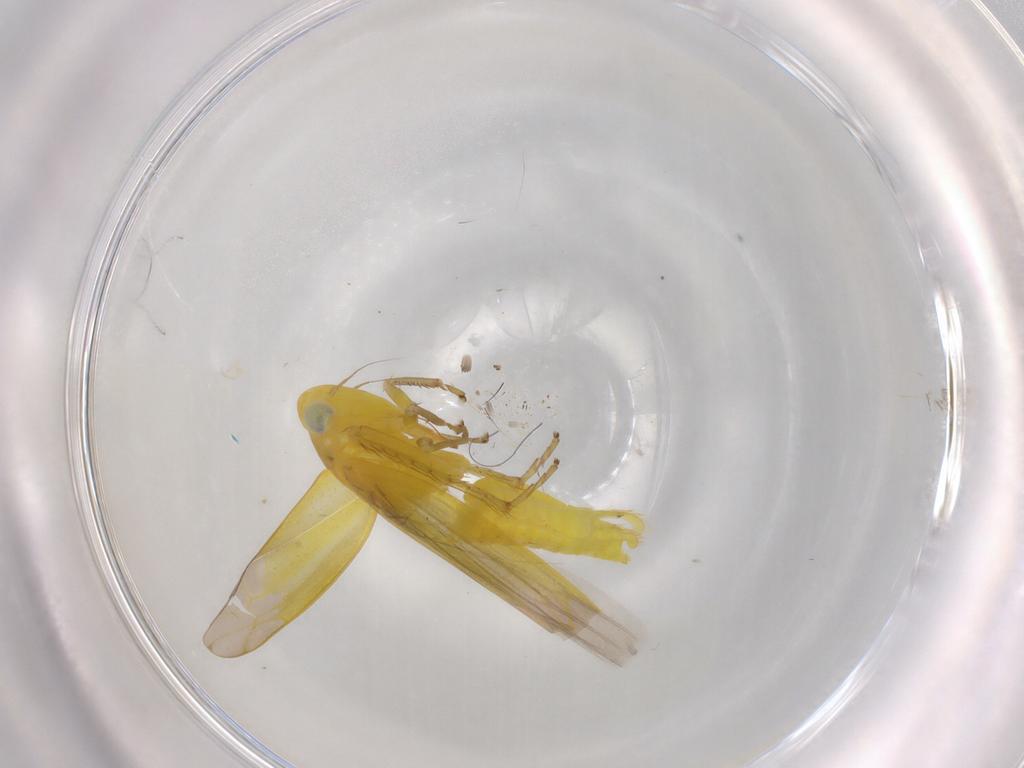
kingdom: Animalia
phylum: Arthropoda
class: Insecta
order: Hemiptera
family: Cicadellidae
